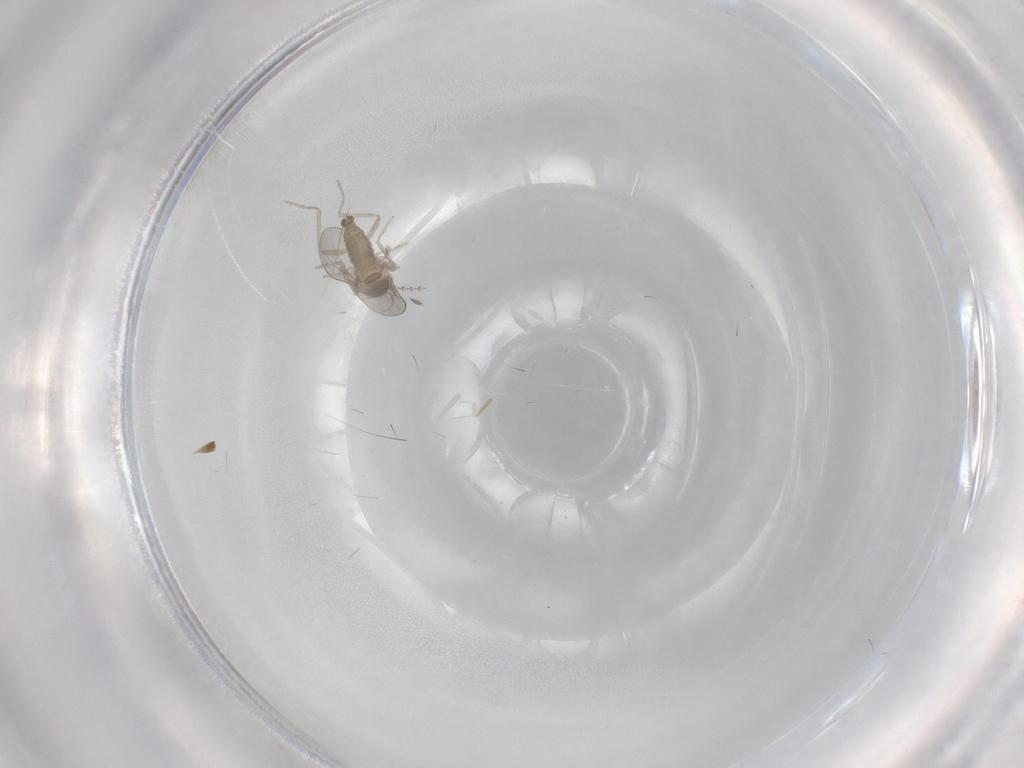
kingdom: Animalia
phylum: Arthropoda
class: Insecta
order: Diptera
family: Cecidomyiidae
